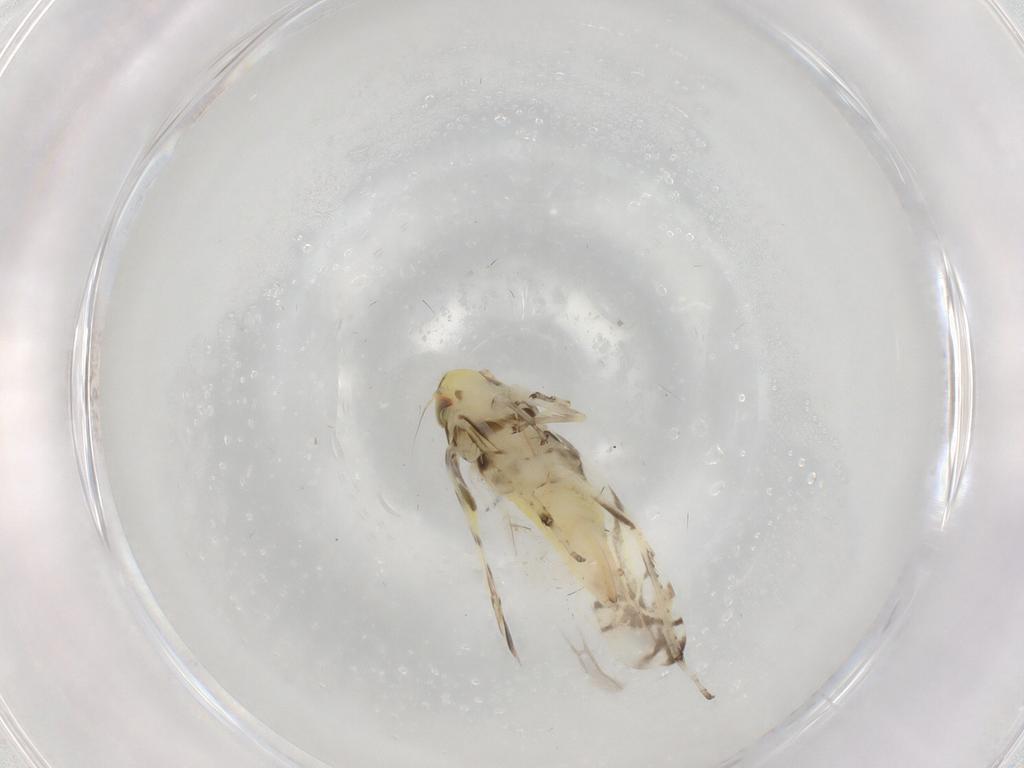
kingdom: Animalia
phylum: Arthropoda
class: Insecta
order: Hemiptera
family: Cicadellidae
